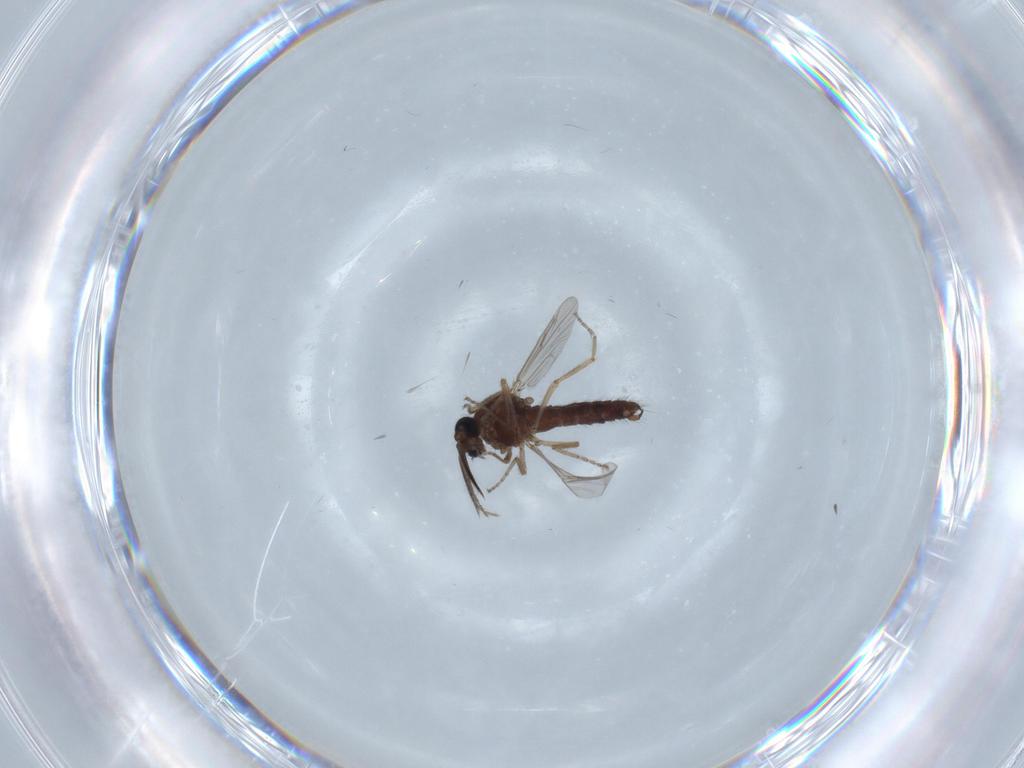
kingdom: Animalia
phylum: Arthropoda
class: Insecta
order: Diptera
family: Ceratopogonidae
